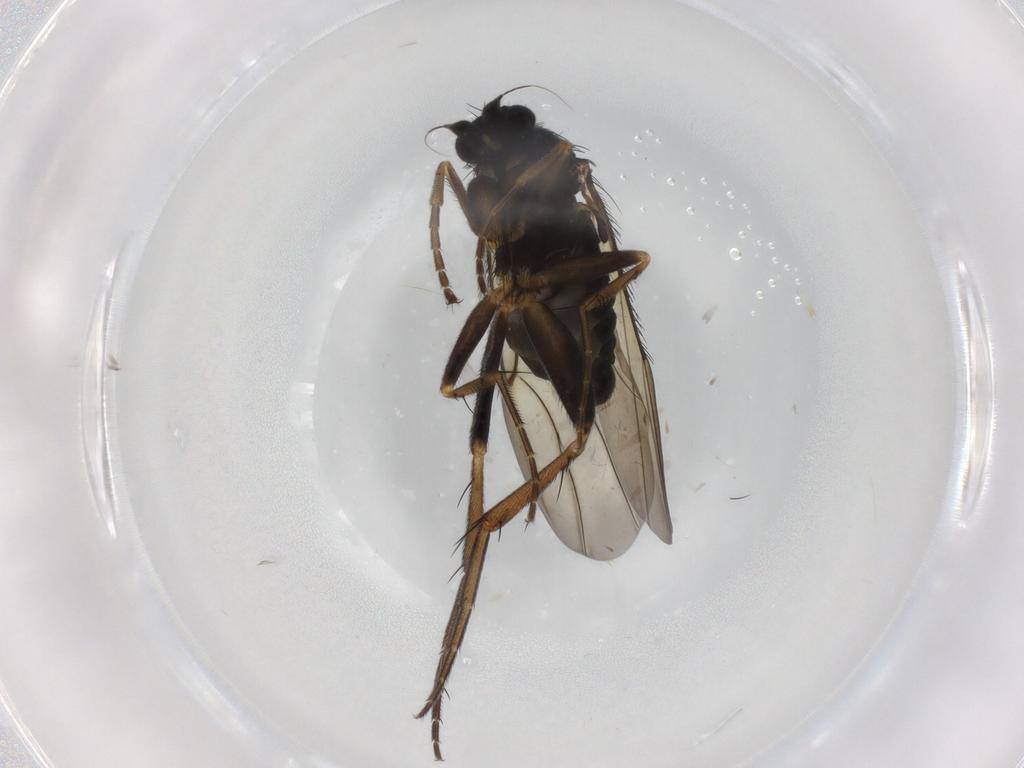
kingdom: Animalia
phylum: Arthropoda
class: Insecta
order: Diptera
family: Phoridae
